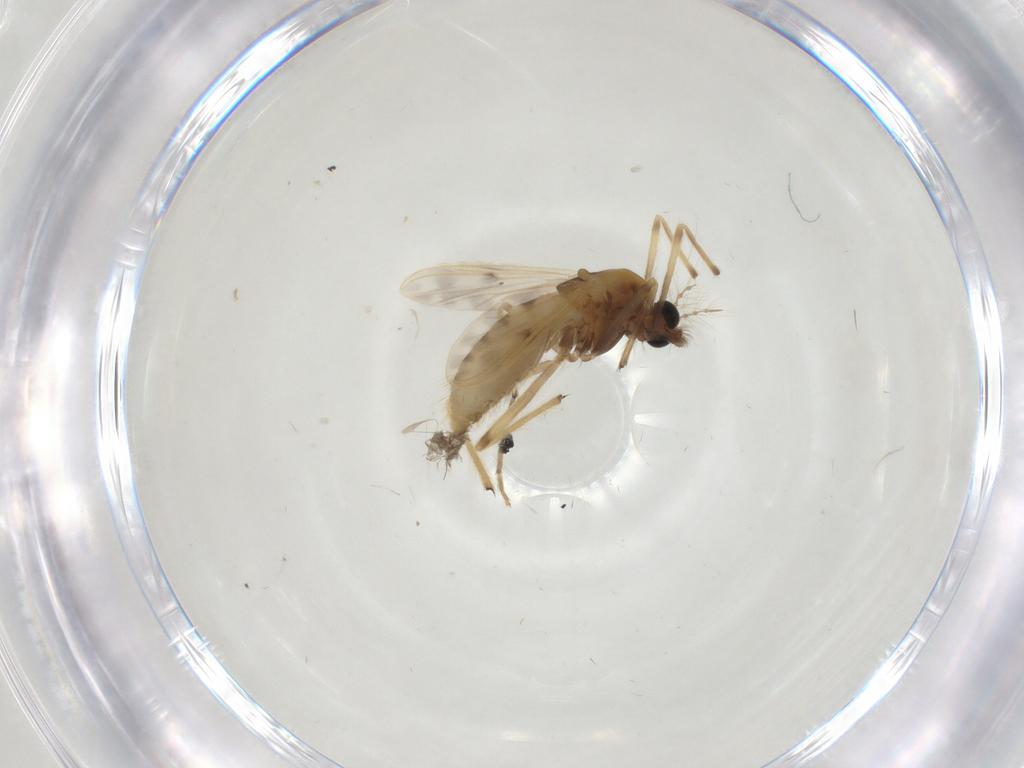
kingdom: Animalia
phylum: Arthropoda
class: Insecta
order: Diptera
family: Chironomidae
